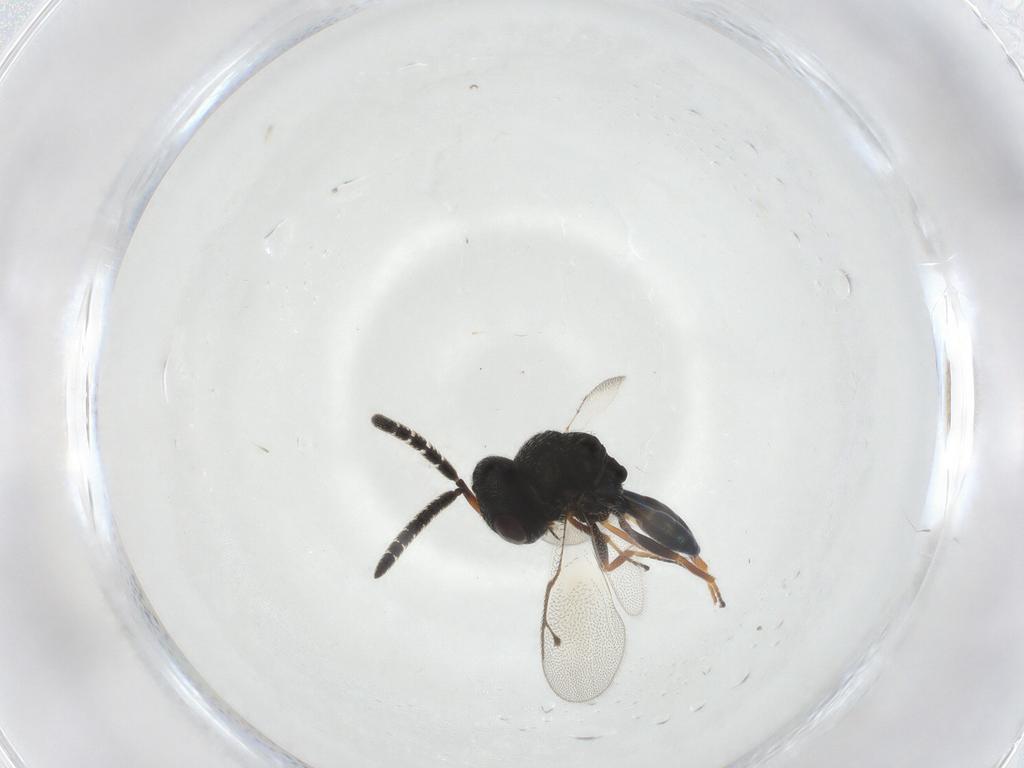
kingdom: Animalia
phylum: Arthropoda
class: Insecta
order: Hymenoptera
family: Pteromalidae
